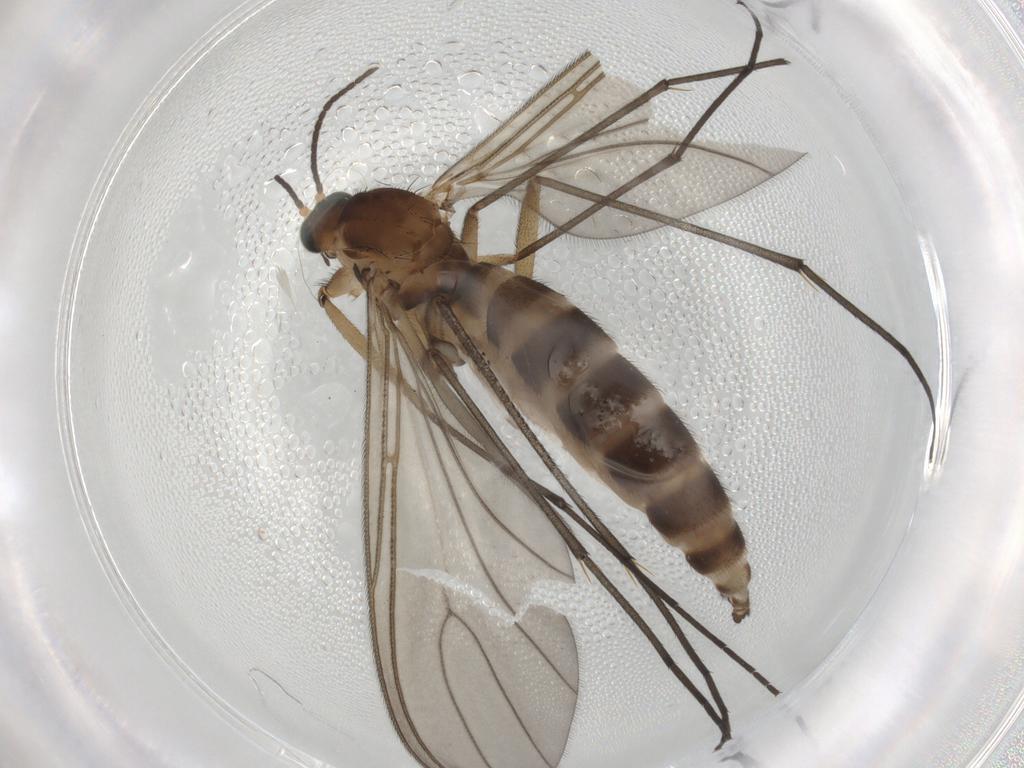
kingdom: Animalia
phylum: Arthropoda
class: Insecta
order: Diptera
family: Sciaridae
